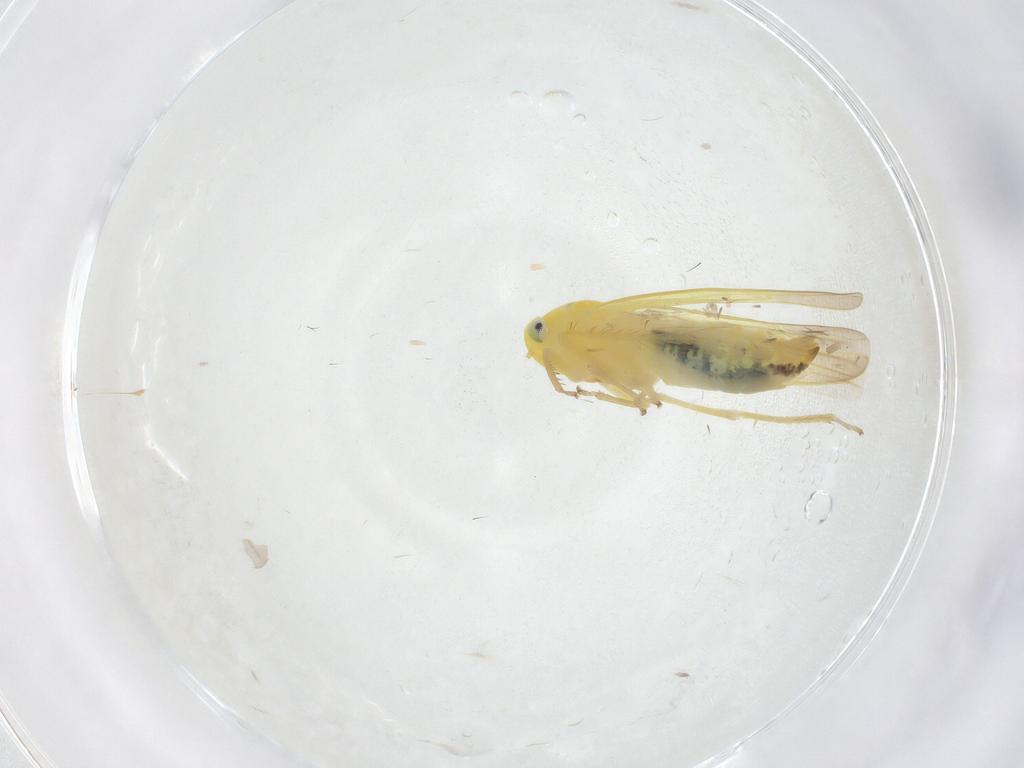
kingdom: Animalia
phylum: Arthropoda
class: Insecta
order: Hemiptera
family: Cicadellidae
